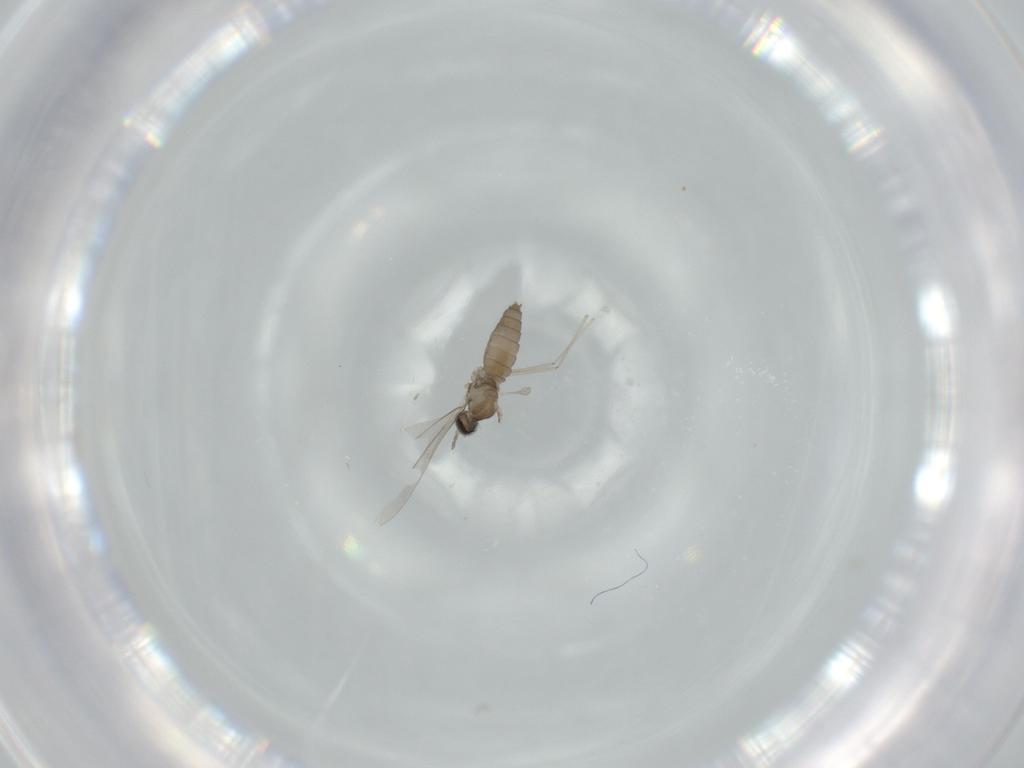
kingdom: Animalia
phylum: Arthropoda
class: Insecta
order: Diptera
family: Cecidomyiidae
